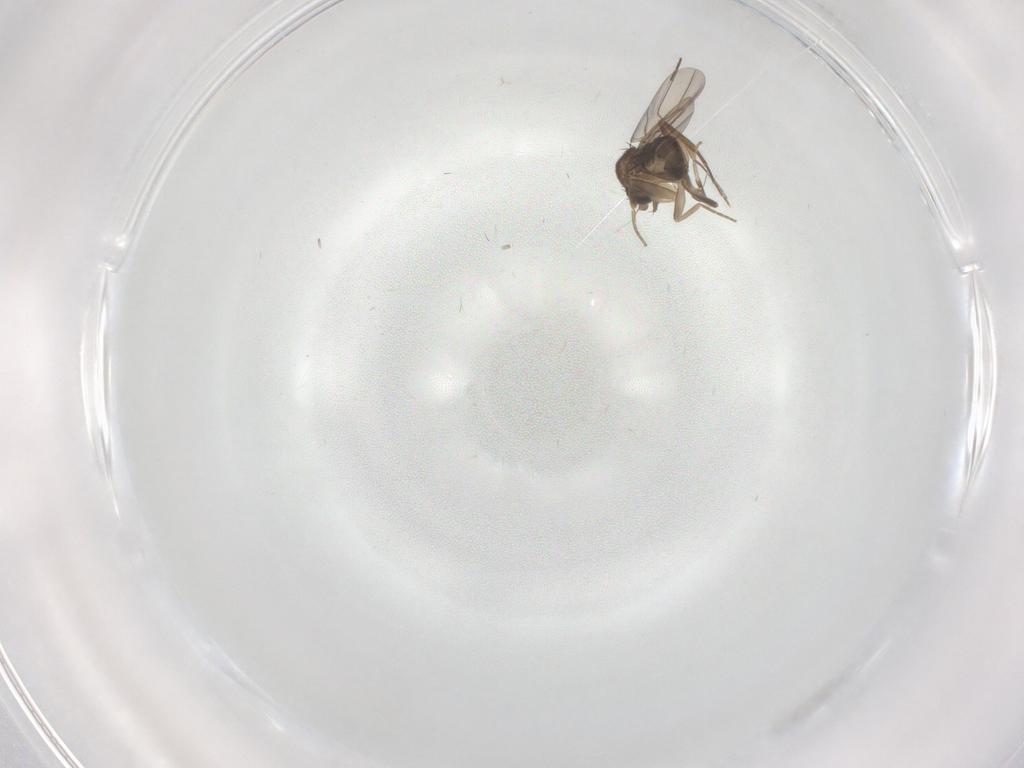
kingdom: Animalia
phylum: Arthropoda
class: Insecta
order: Diptera
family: Phoridae
